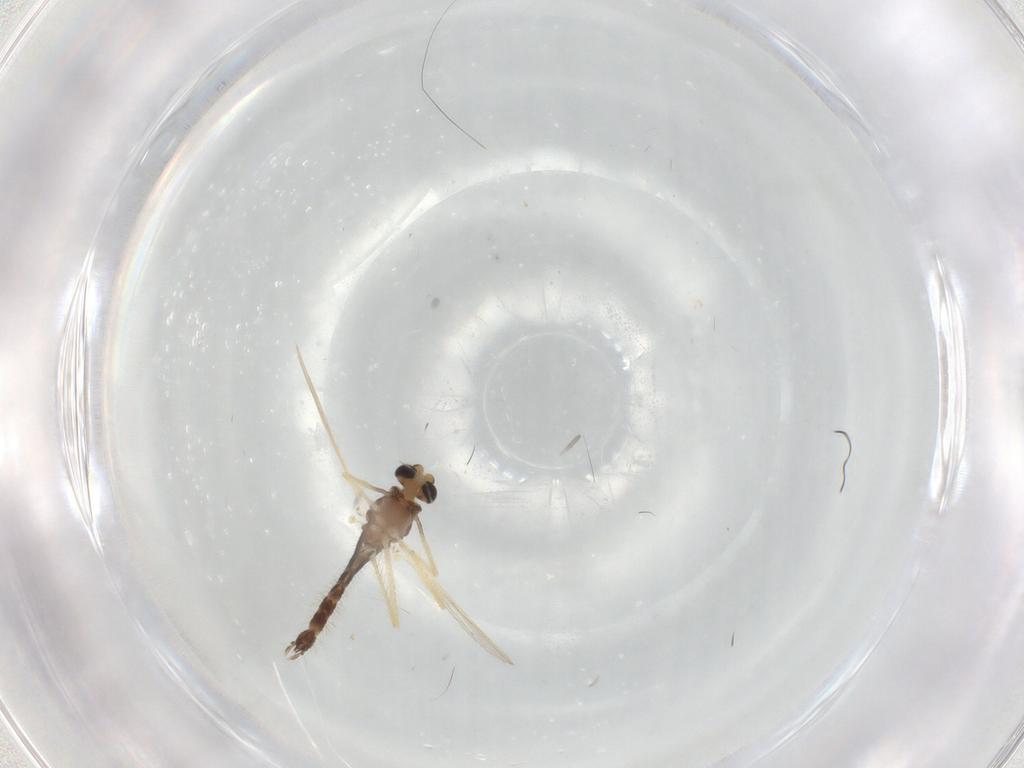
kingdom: Animalia
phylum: Arthropoda
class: Insecta
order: Diptera
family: Chironomidae
